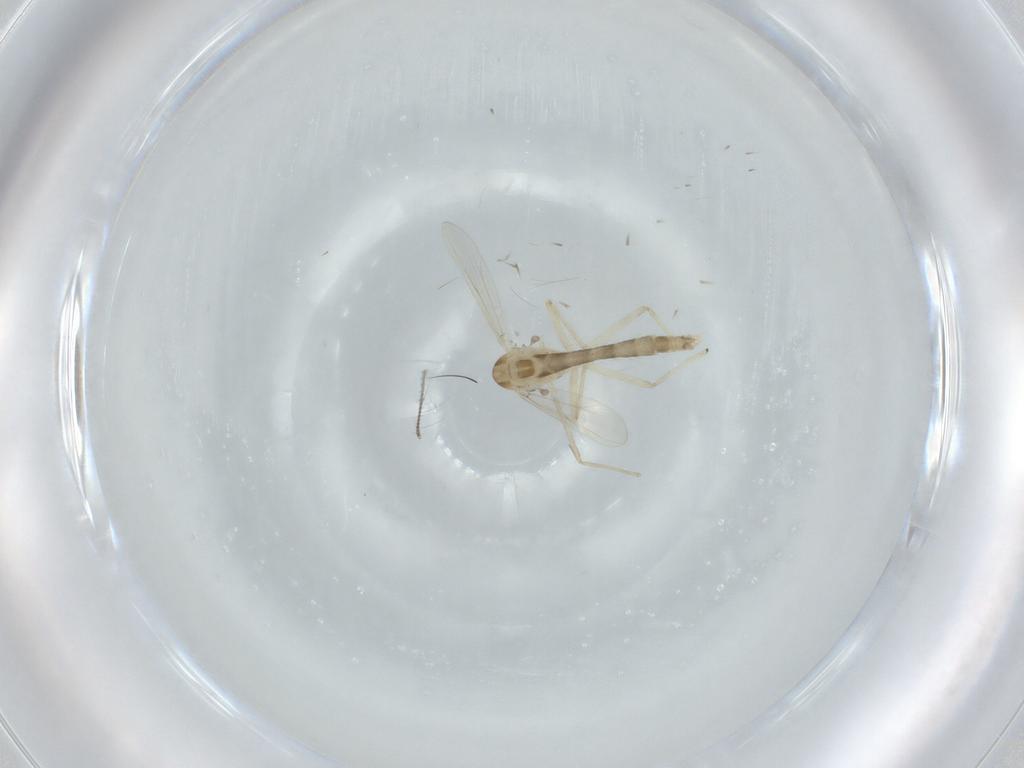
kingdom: Animalia
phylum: Arthropoda
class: Insecta
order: Diptera
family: Chironomidae
